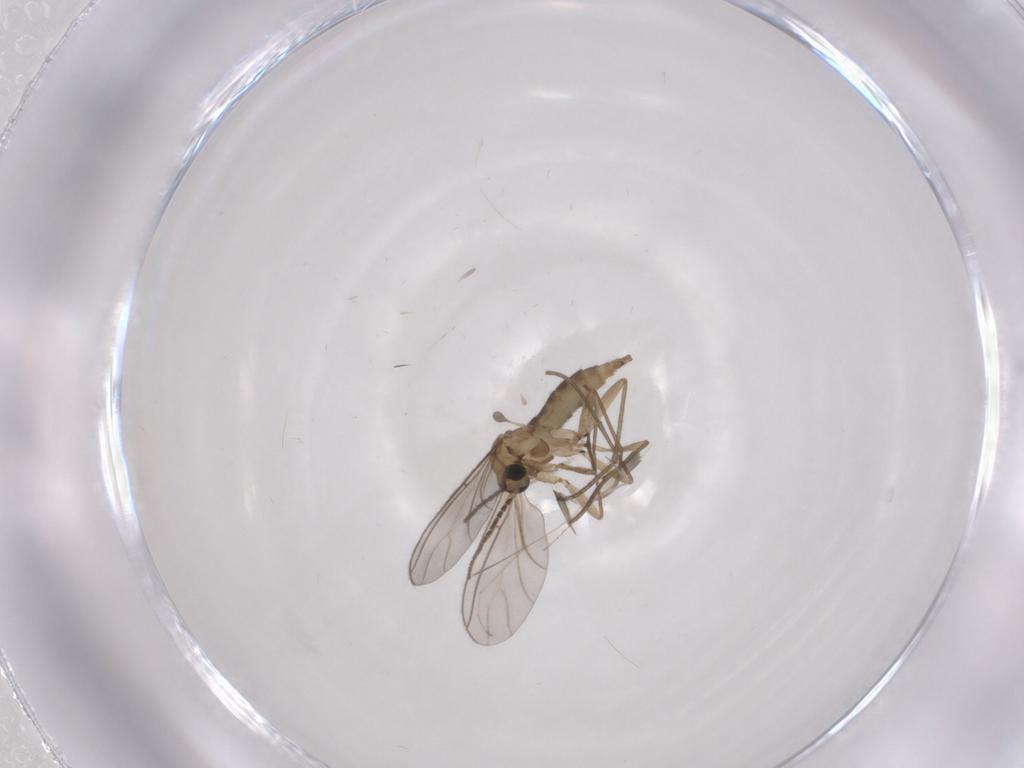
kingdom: Animalia
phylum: Arthropoda
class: Insecta
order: Diptera
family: Sciaridae
